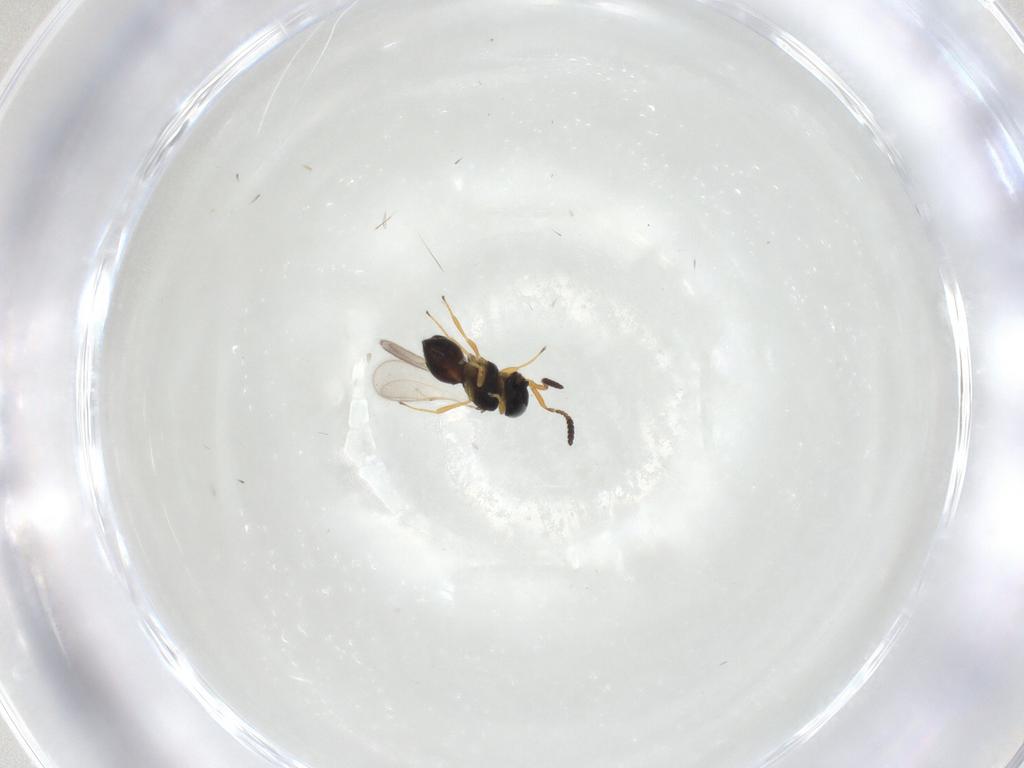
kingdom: Animalia
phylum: Arthropoda
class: Insecta
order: Hymenoptera
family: Scelionidae
